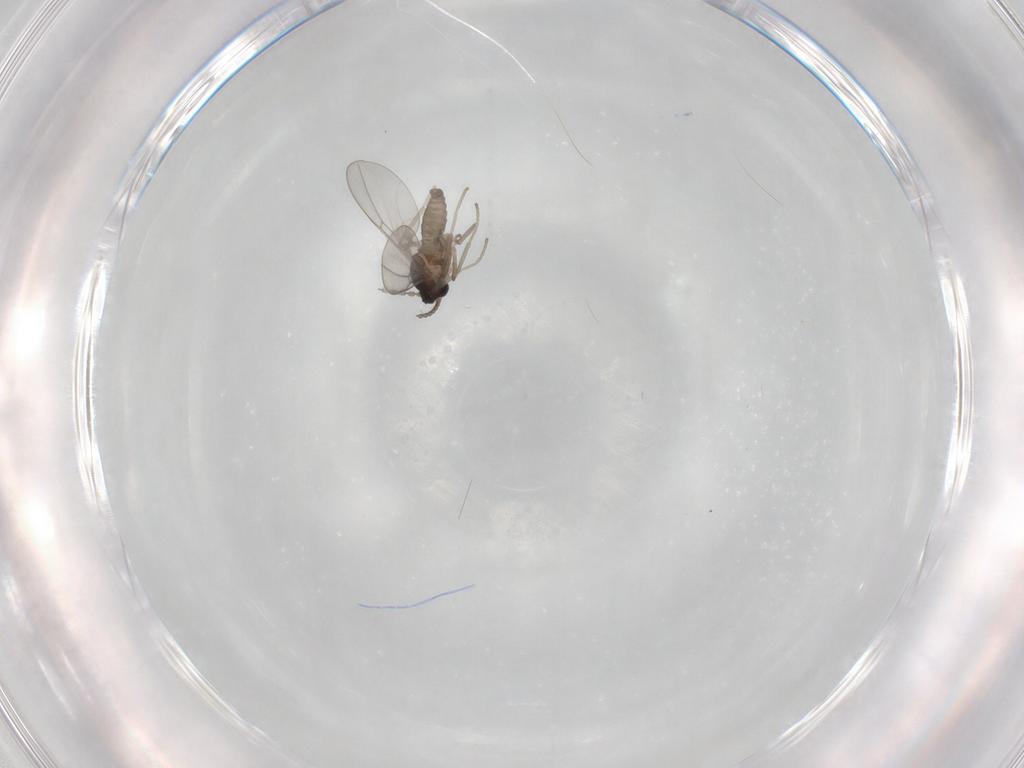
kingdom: Animalia
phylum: Arthropoda
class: Insecta
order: Diptera
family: Cecidomyiidae
